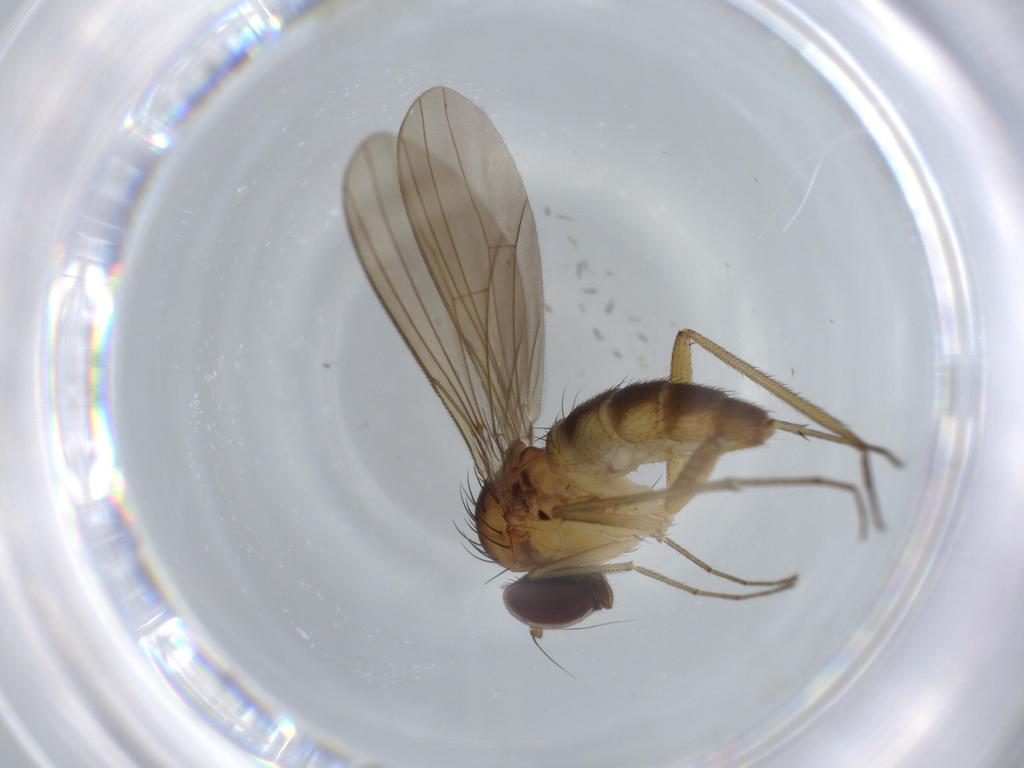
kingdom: Animalia
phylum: Arthropoda
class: Insecta
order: Diptera
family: Dolichopodidae
